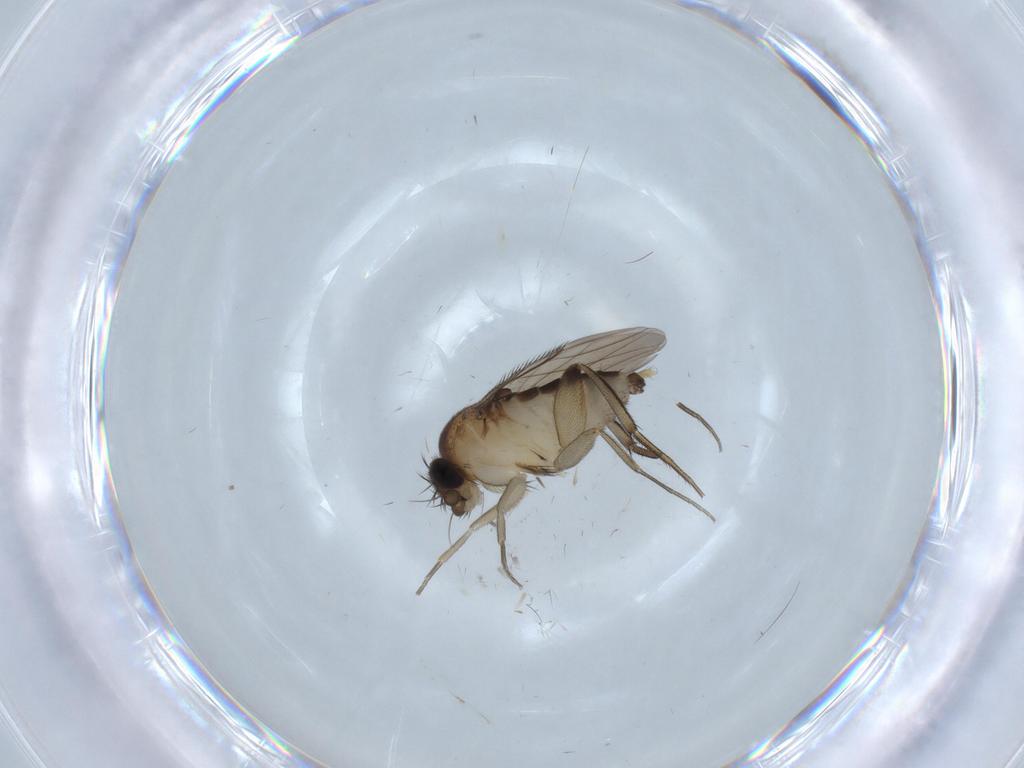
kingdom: Animalia
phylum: Arthropoda
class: Insecta
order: Diptera
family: Phoridae
